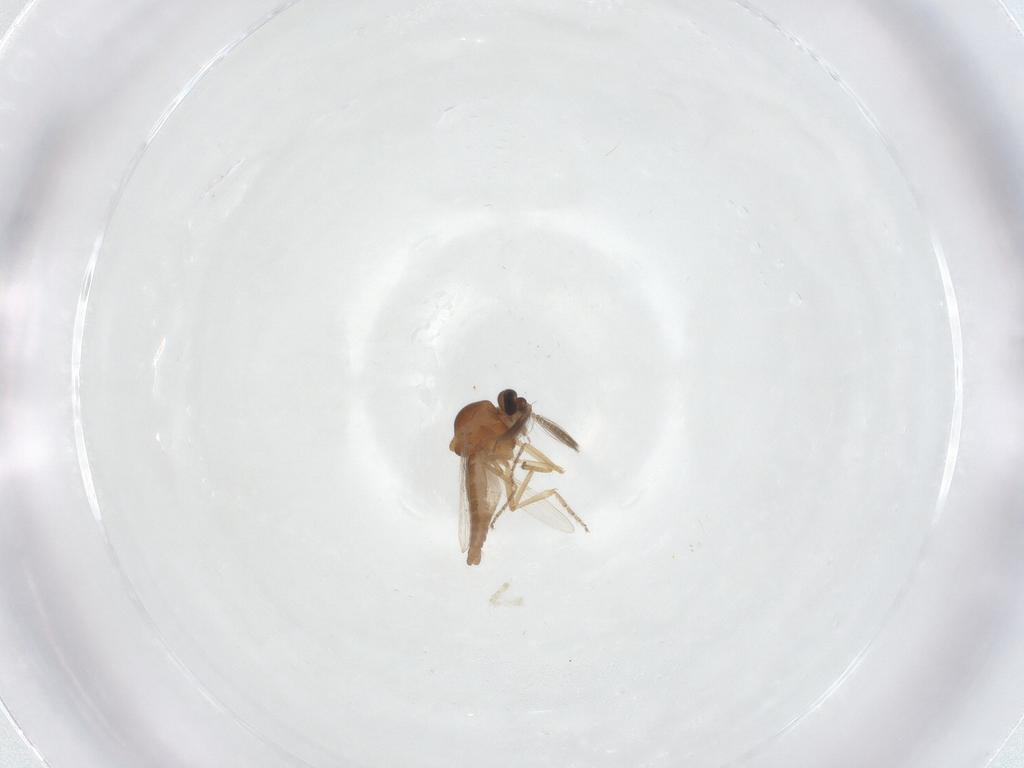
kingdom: Animalia
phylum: Arthropoda
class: Insecta
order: Diptera
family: Ceratopogonidae
